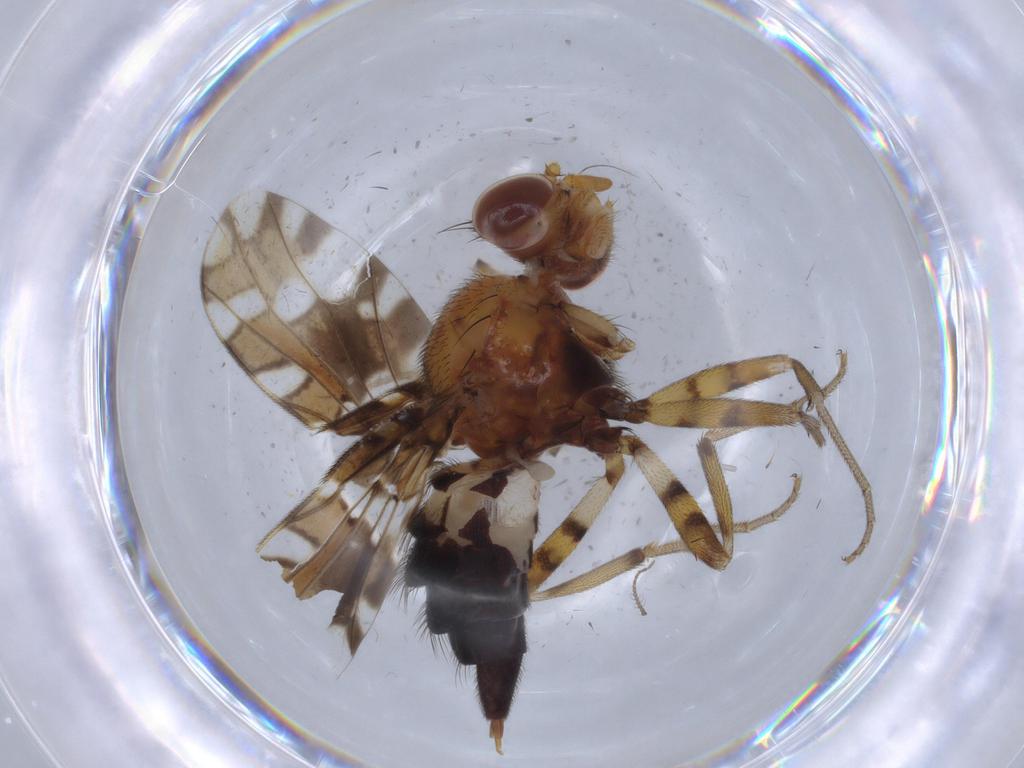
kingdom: Animalia
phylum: Arthropoda
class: Insecta
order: Diptera
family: Ulidiidae
